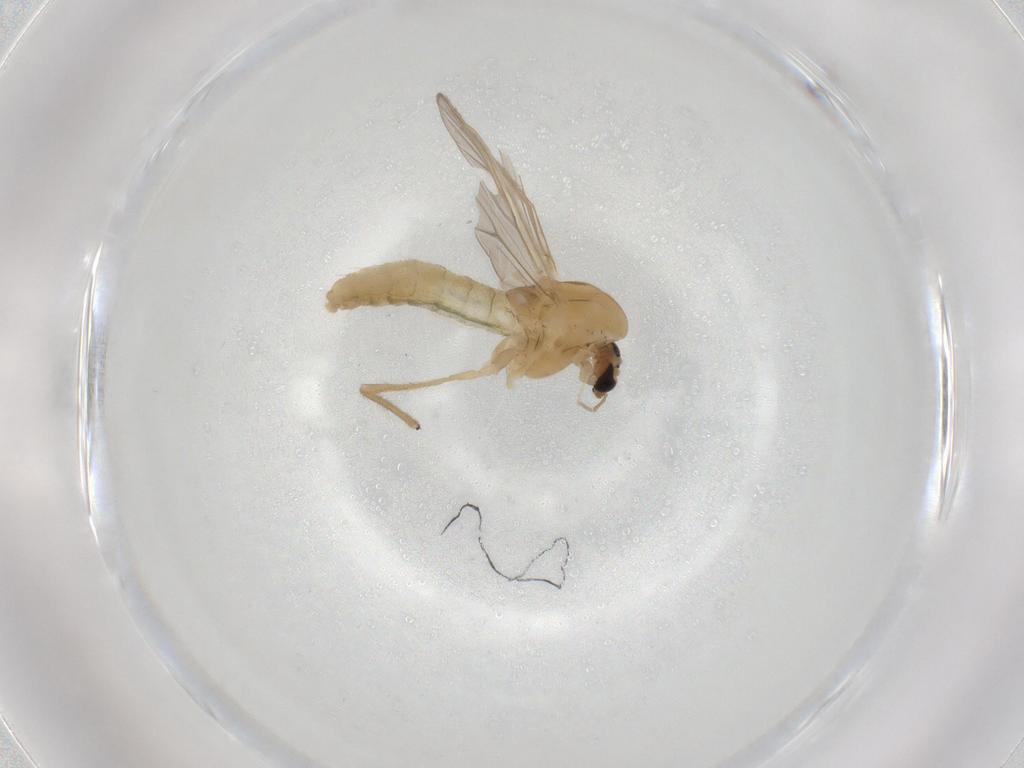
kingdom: Animalia
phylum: Arthropoda
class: Insecta
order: Diptera
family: Chironomidae
